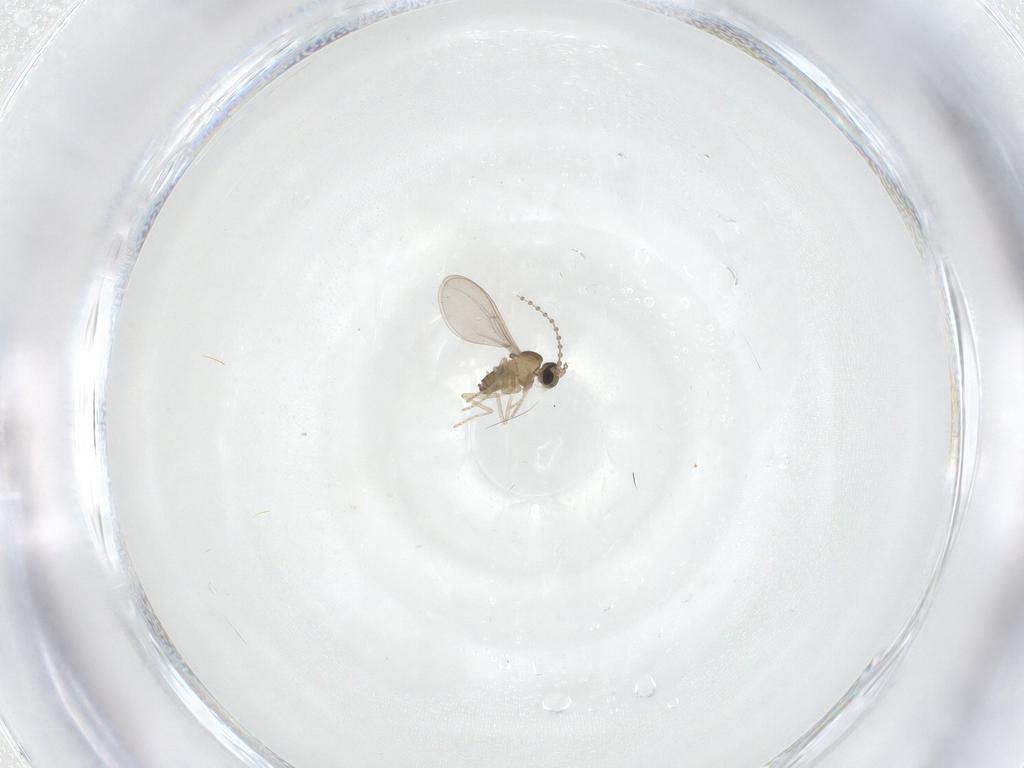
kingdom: Animalia
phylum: Arthropoda
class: Insecta
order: Diptera
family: Cecidomyiidae
